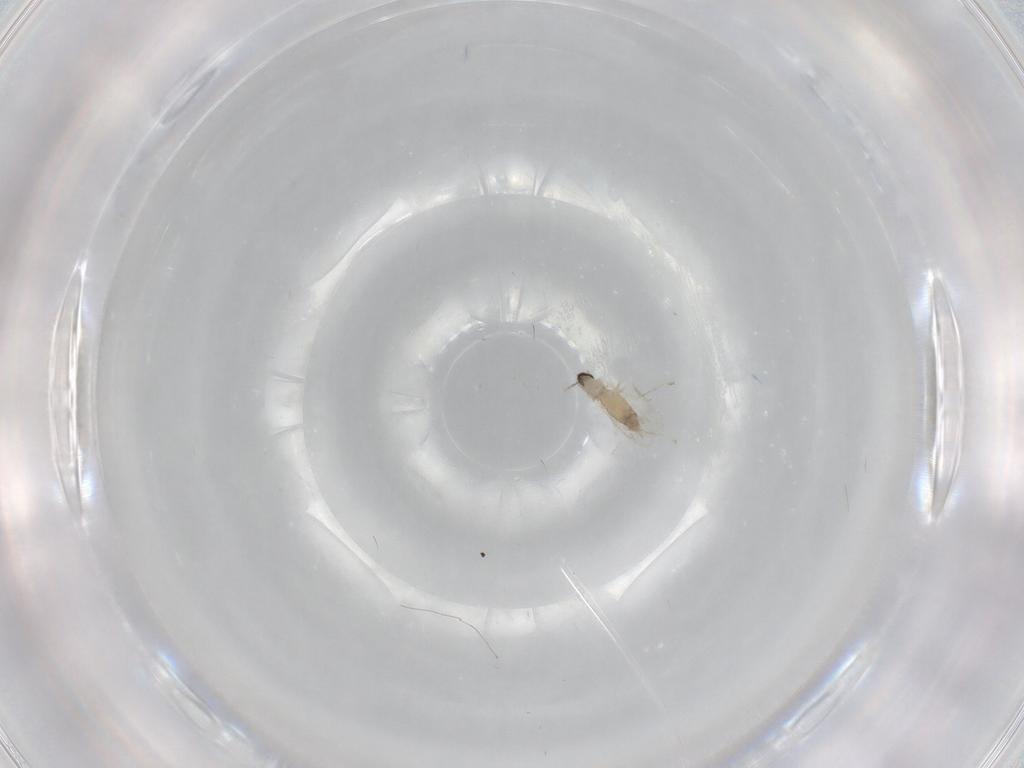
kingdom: Animalia
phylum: Arthropoda
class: Insecta
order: Diptera
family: Cecidomyiidae
